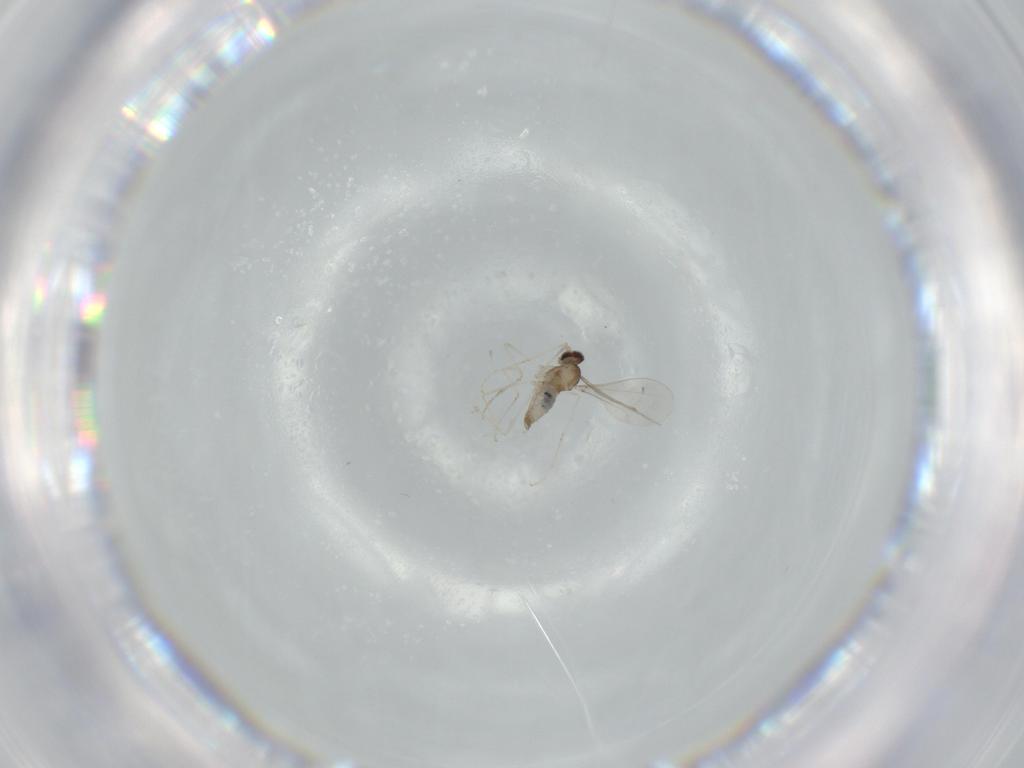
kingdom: Animalia
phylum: Arthropoda
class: Insecta
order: Diptera
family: Cecidomyiidae
